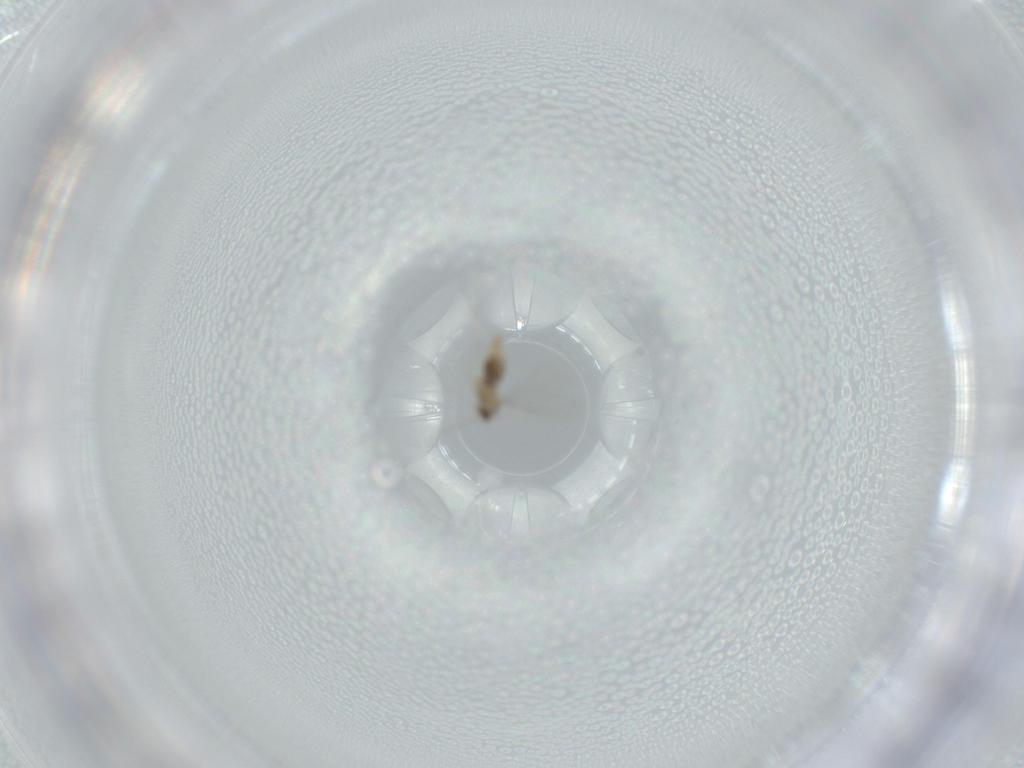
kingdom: Animalia
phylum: Arthropoda
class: Insecta
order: Diptera
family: Cecidomyiidae
